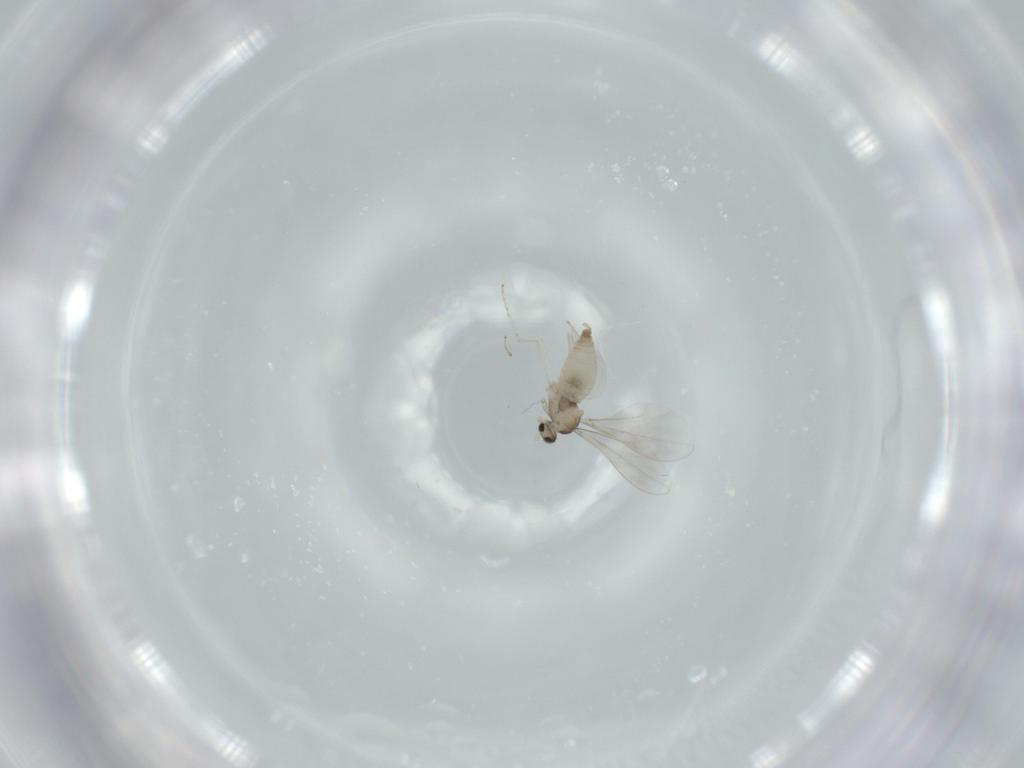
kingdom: Animalia
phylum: Arthropoda
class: Insecta
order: Diptera
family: Cecidomyiidae
